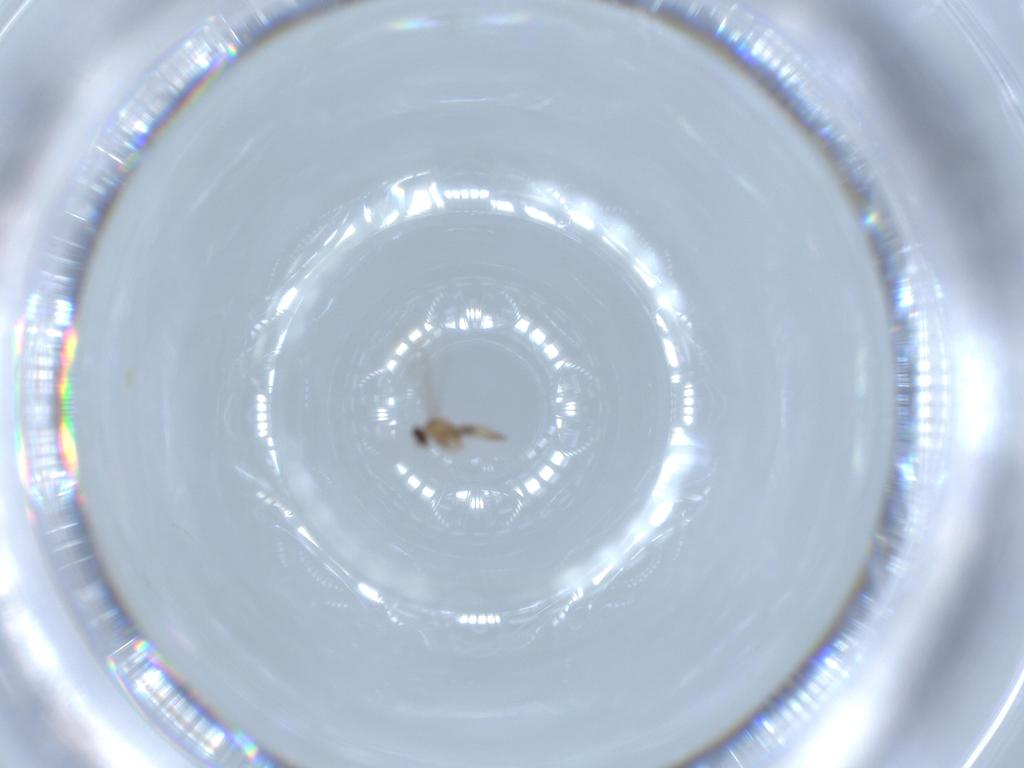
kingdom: Animalia
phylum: Arthropoda
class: Insecta
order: Diptera
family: Cecidomyiidae
